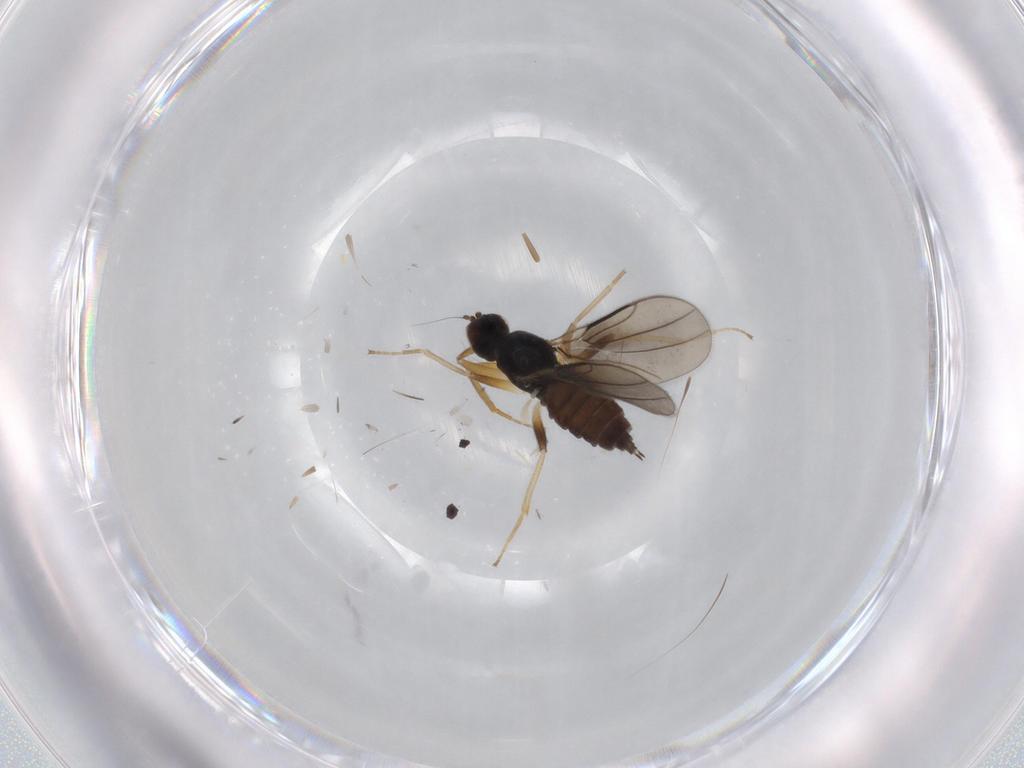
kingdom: Animalia
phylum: Arthropoda
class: Insecta
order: Diptera
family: Hybotidae
